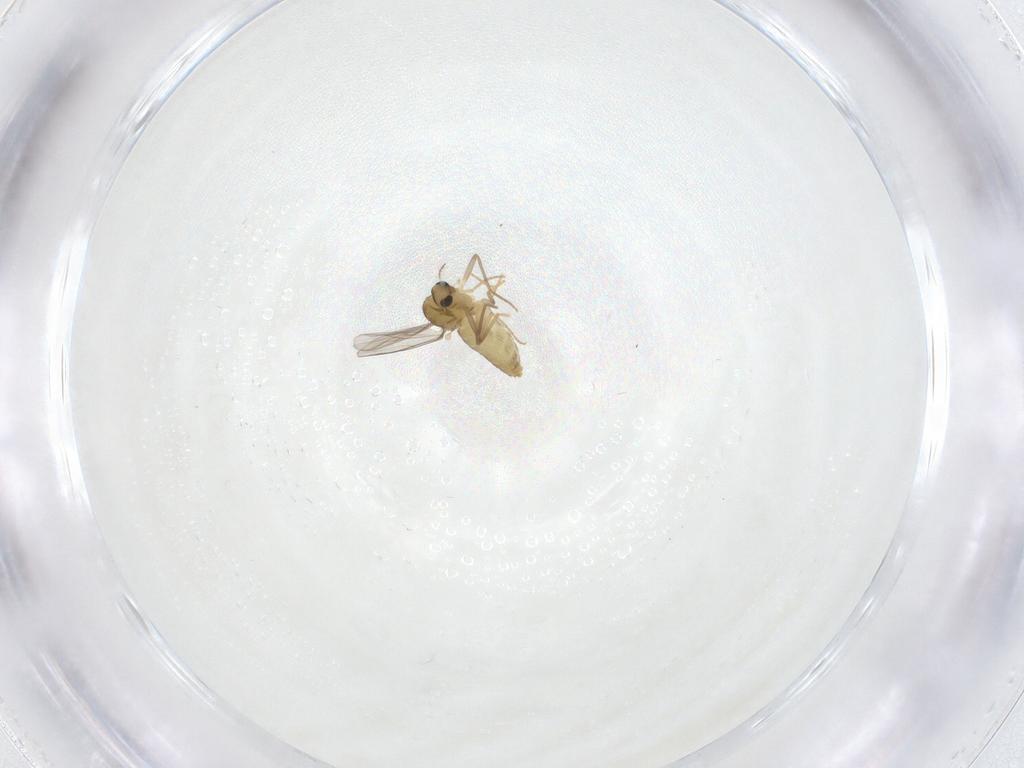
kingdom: Animalia
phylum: Arthropoda
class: Insecta
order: Diptera
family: Chironomidae
